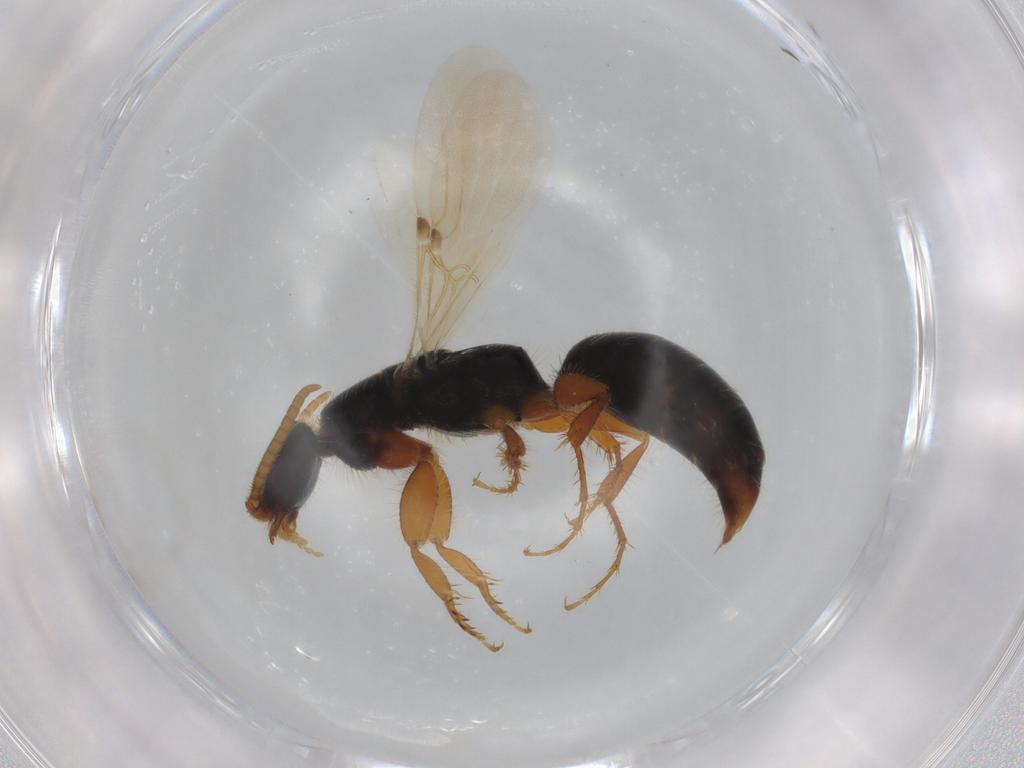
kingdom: Animalia
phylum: Arthropoda
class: Insecta
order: Hymenoptera
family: Bethylidae
